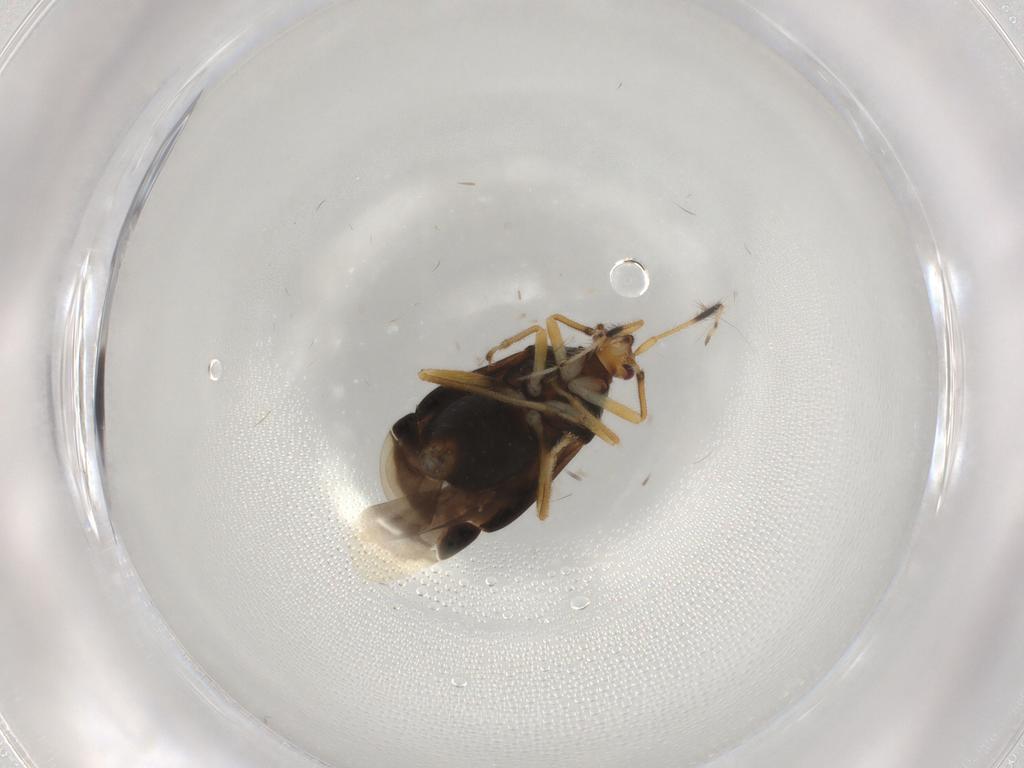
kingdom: Animalia
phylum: Arthropoda
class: Insecta
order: Hemiptera
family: Miridae
